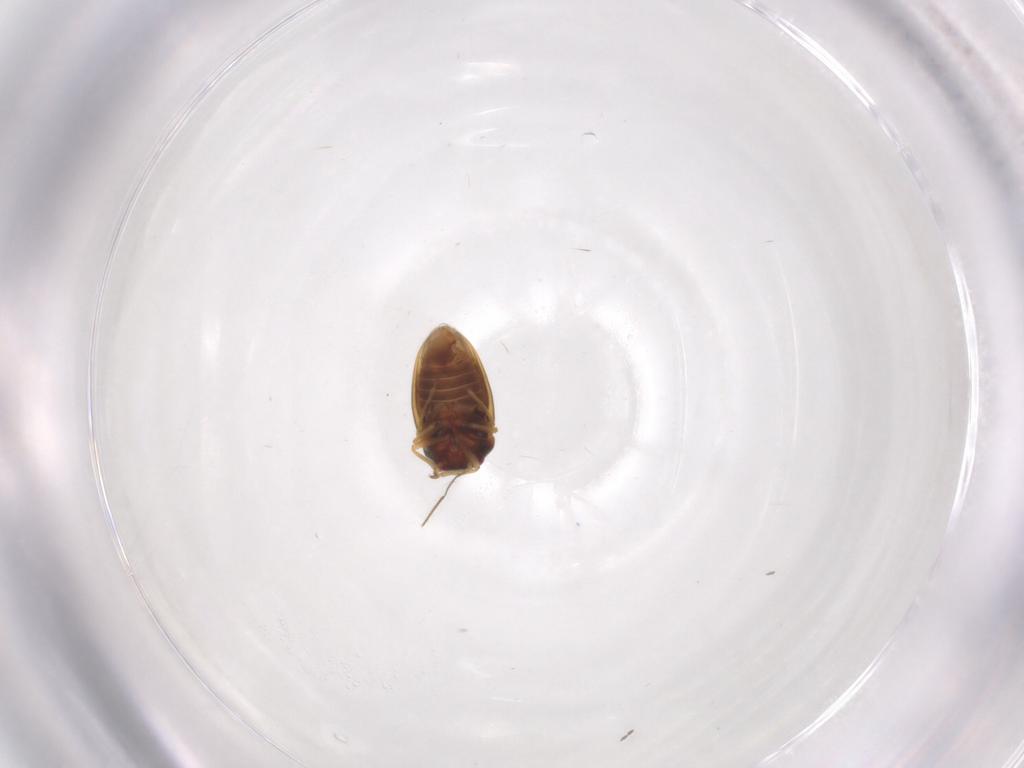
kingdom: Animalia
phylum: Arthropoda
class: Insecta
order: Hemiptera
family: Schizopteridae
